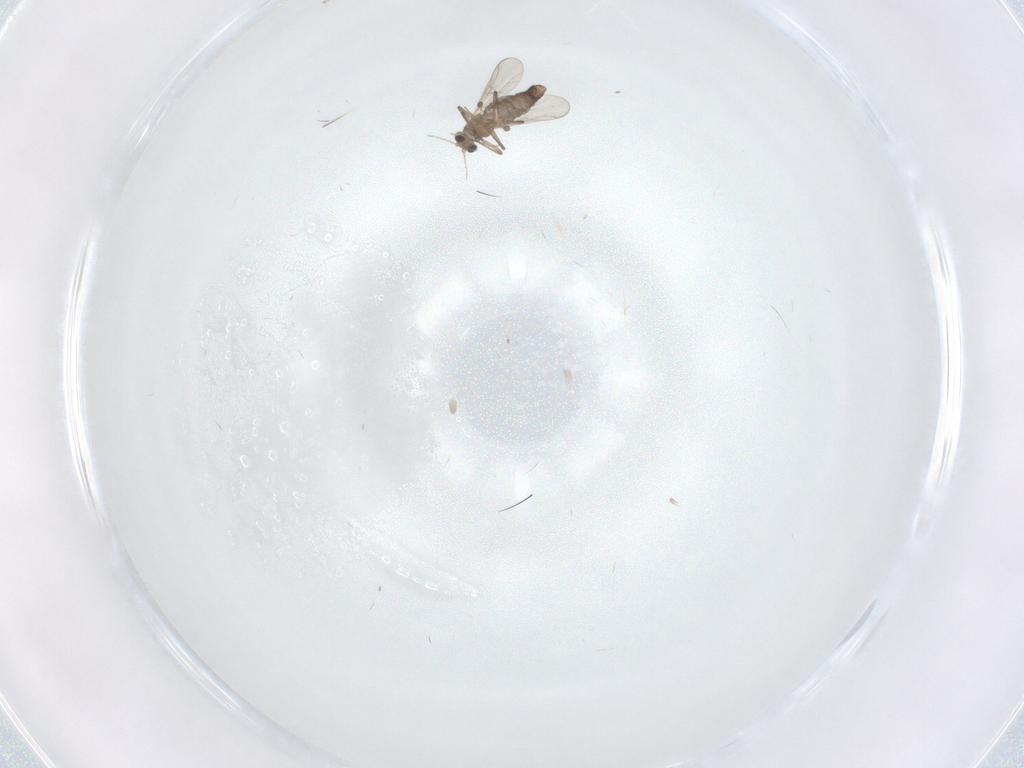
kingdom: Animalia
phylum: Arthropoda
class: Insecta
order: Diptera
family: Chironomidae
